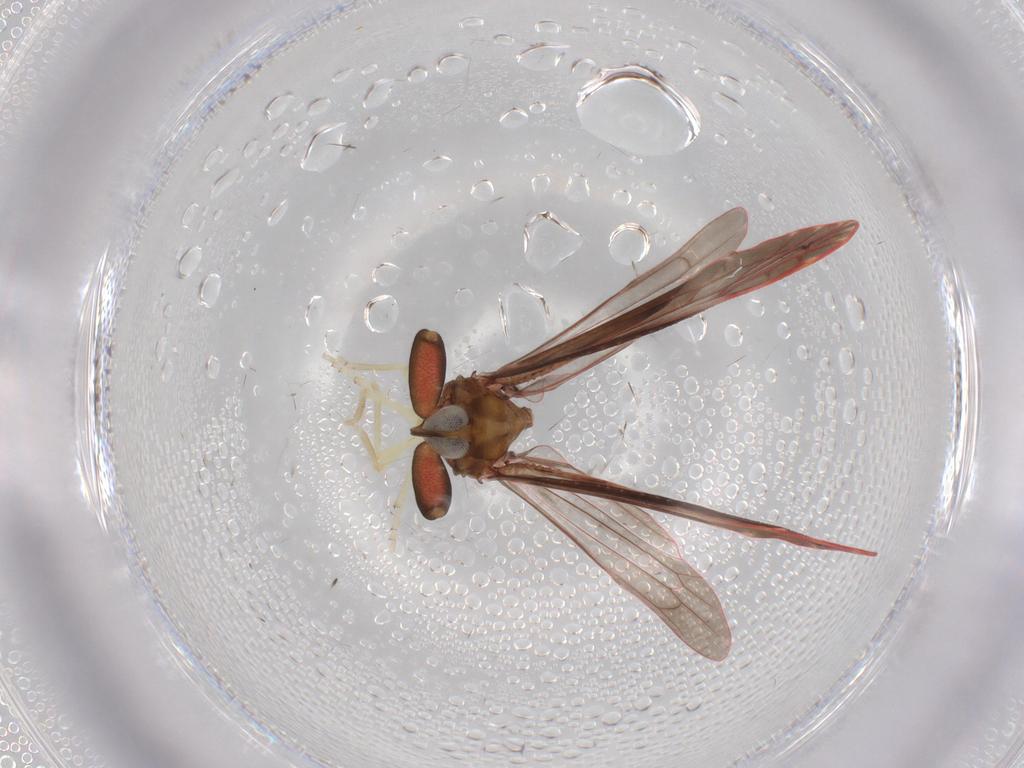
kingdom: Animalia
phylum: Arthropoda
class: Insecta
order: Hemiptera
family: Derbidae
